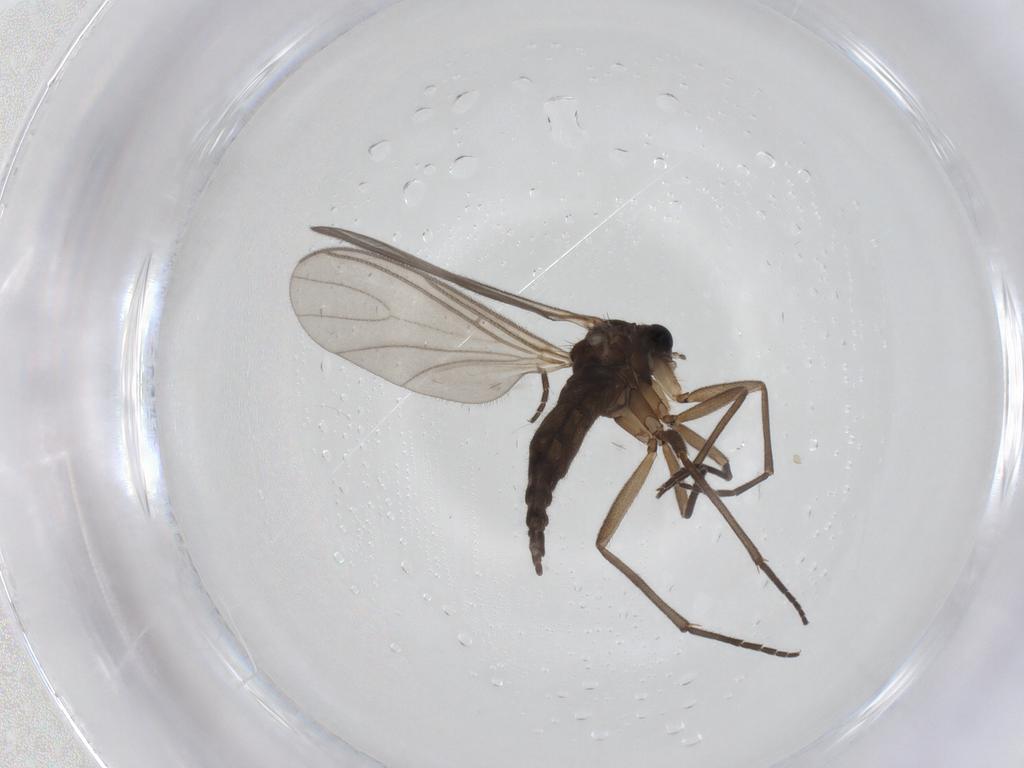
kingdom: Animalia
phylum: Arthropoda
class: Insecta
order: Diptera
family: Sciaridae
